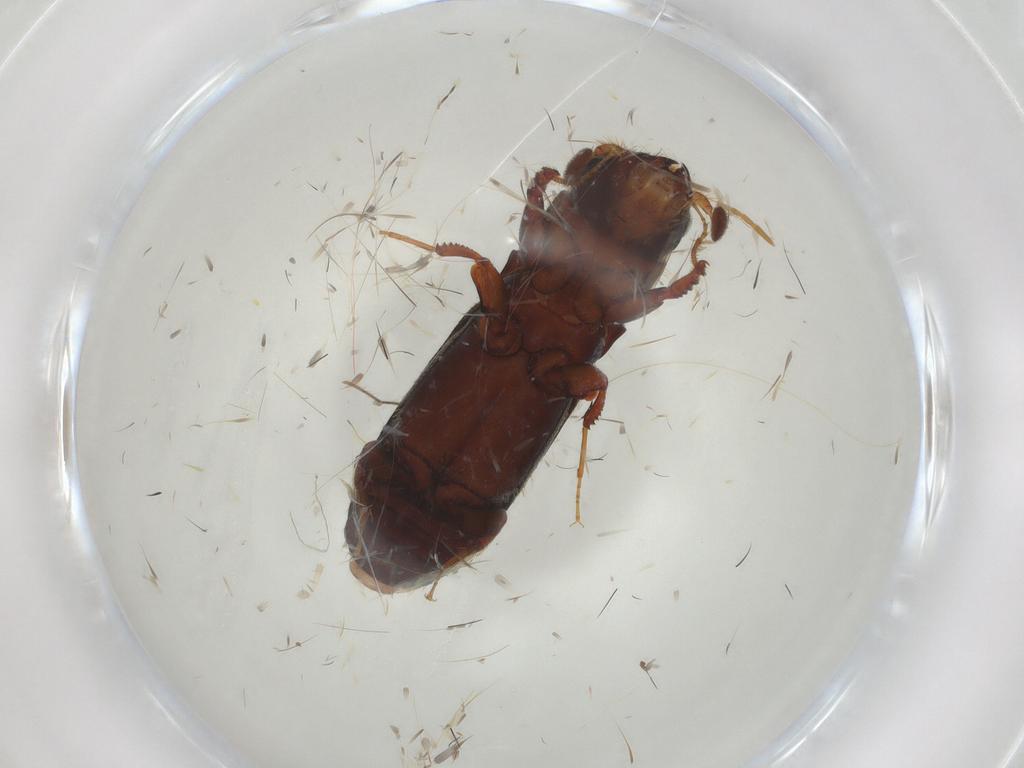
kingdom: Animalia
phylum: Arthropoda
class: Insecta
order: Coleoptera
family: Curculionidae
